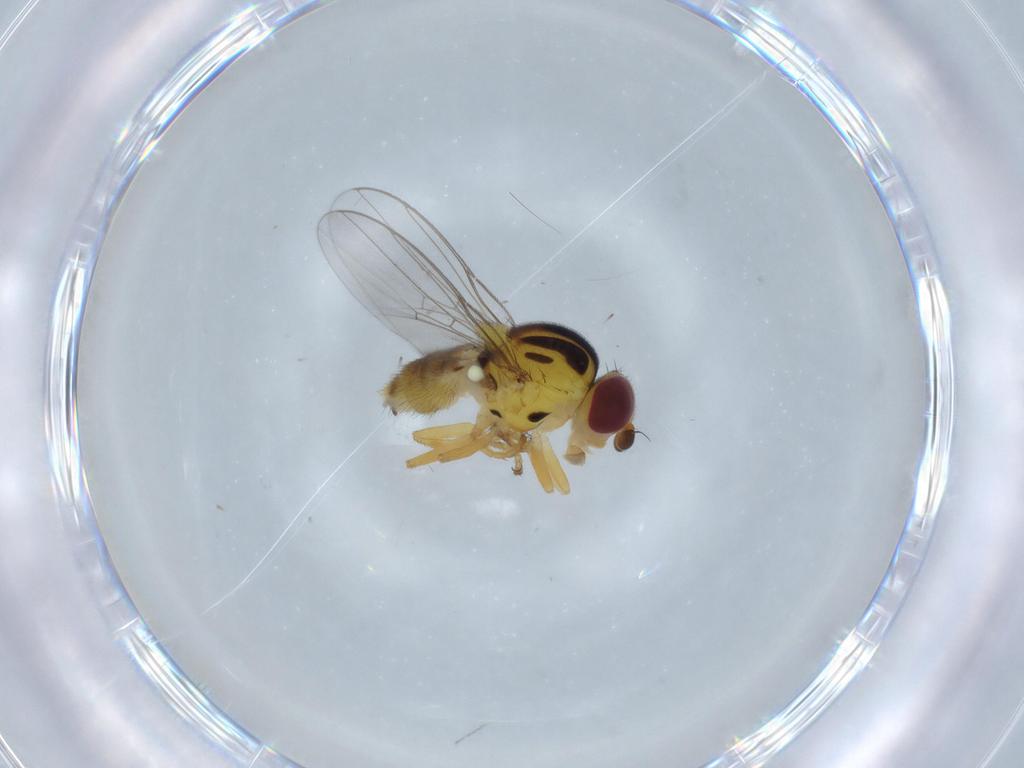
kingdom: Animalia
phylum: Arthropoda
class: Insecta
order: Diptera
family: Chloropidae
